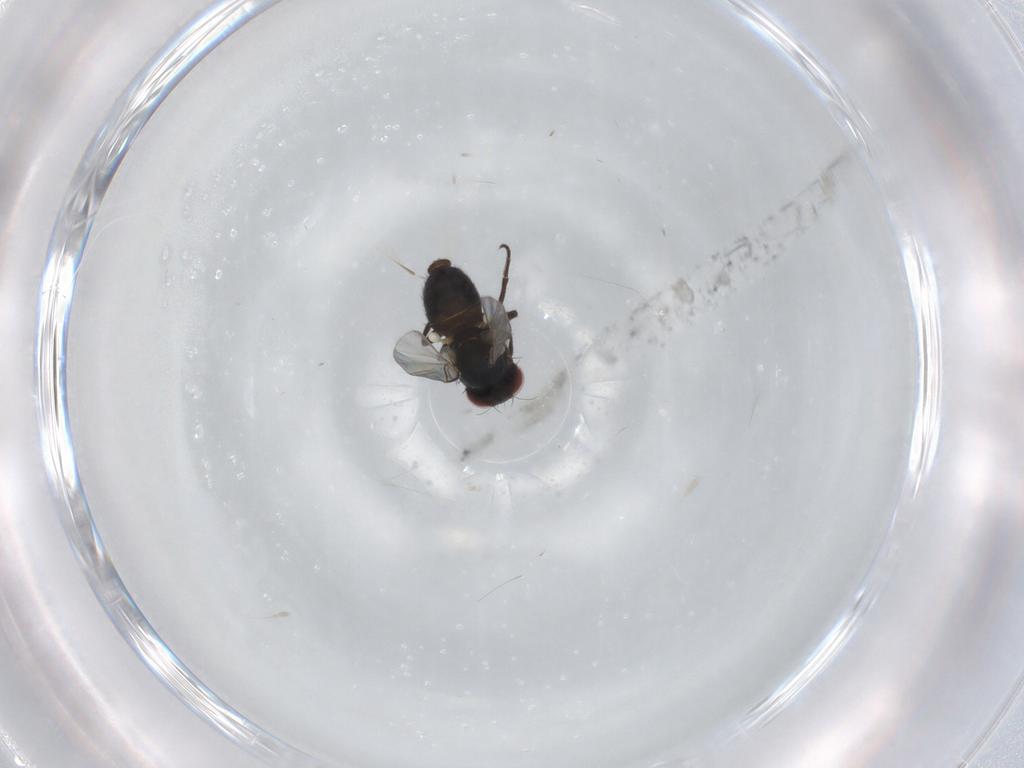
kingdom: Animalia
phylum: Arthropoda
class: Insecta
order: Diptera
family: Agromyzidae
